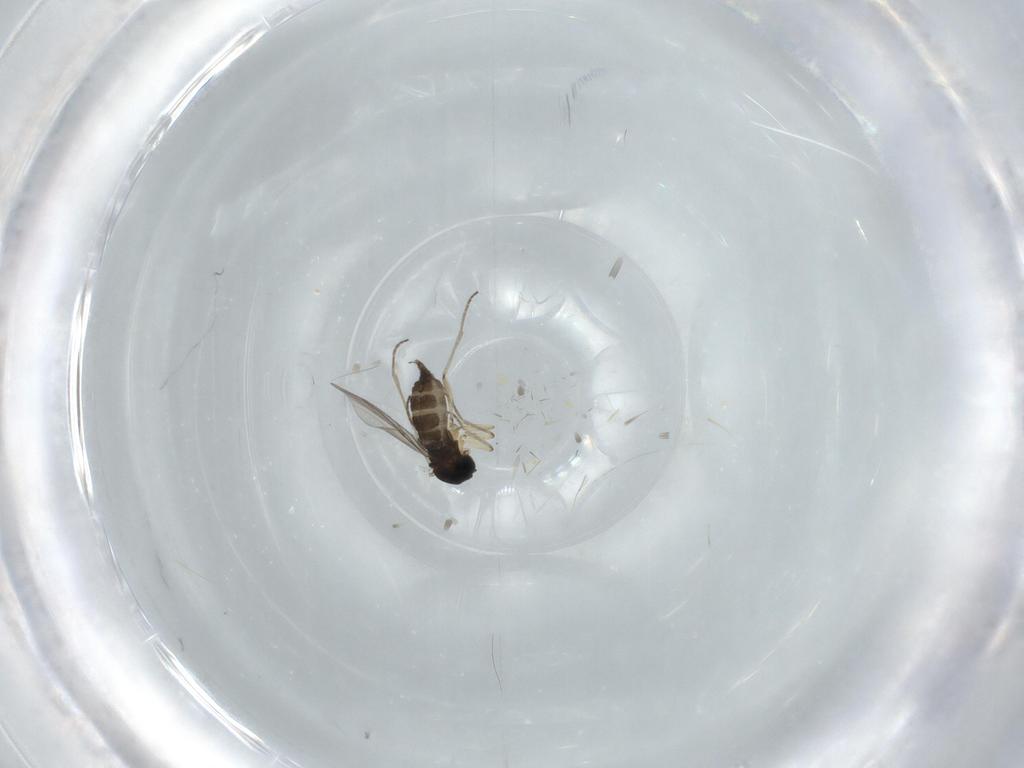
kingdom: Animalia
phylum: Arthropoda
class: Insecta
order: Diptera
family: Sciaridae
